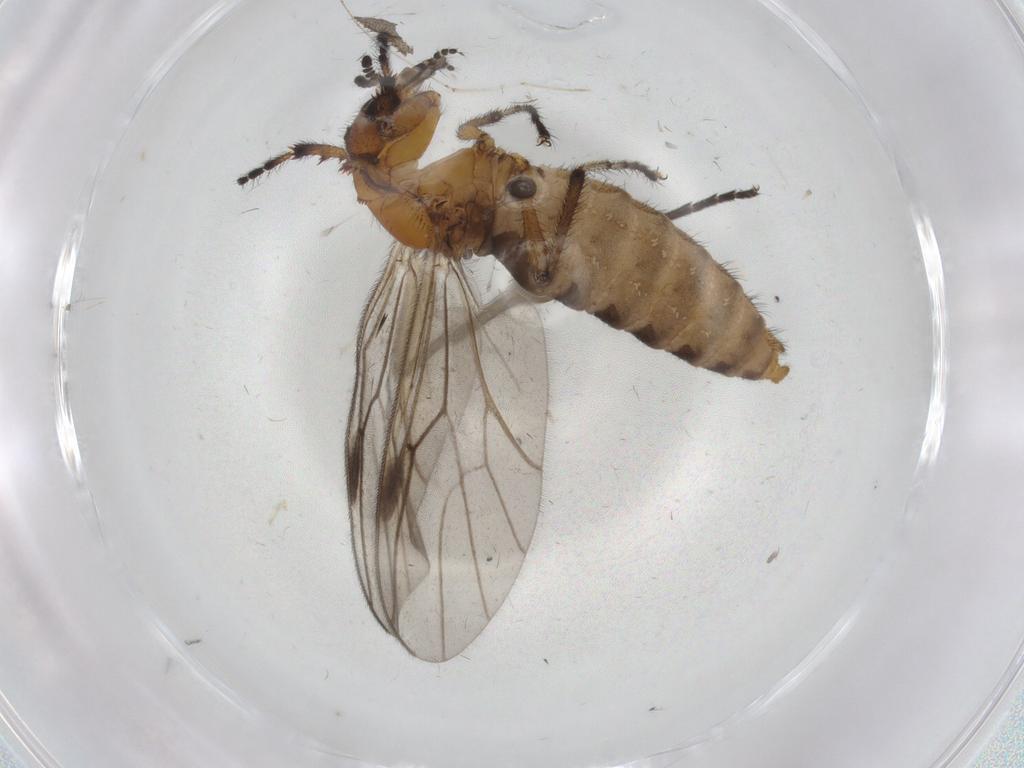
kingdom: Animalia
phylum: Arthropoda
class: Insecta
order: Diptera
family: Bibionidae
